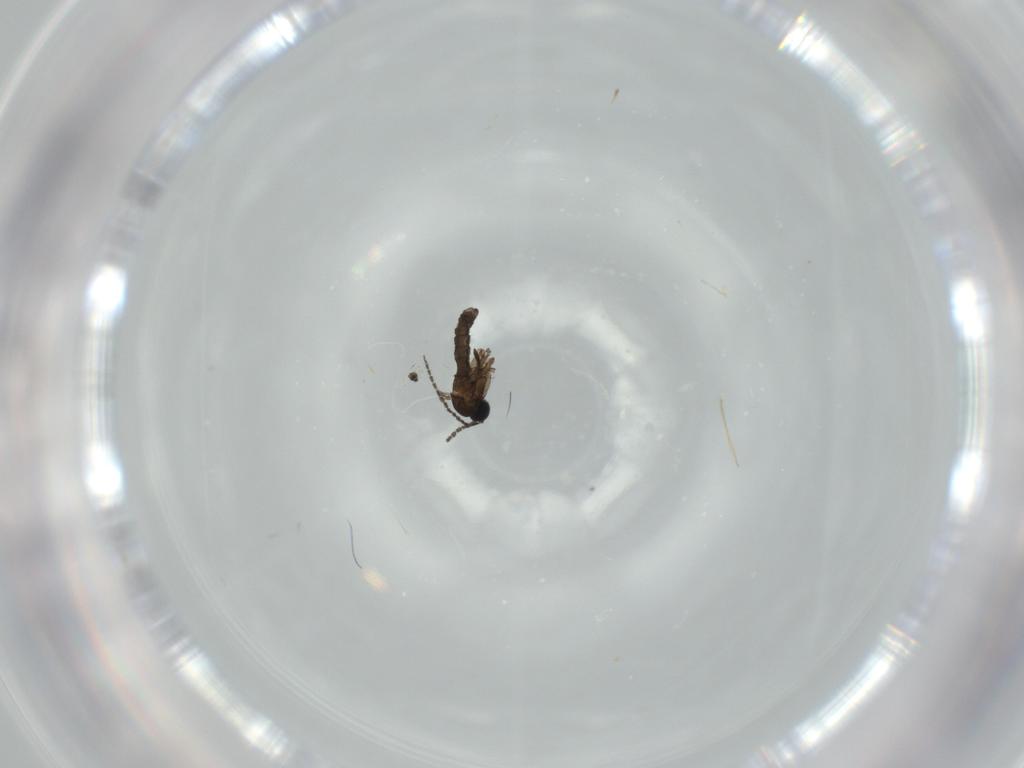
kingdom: Animalia
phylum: Arthropoda
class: Insecta
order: Diptera
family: Sciaridae
